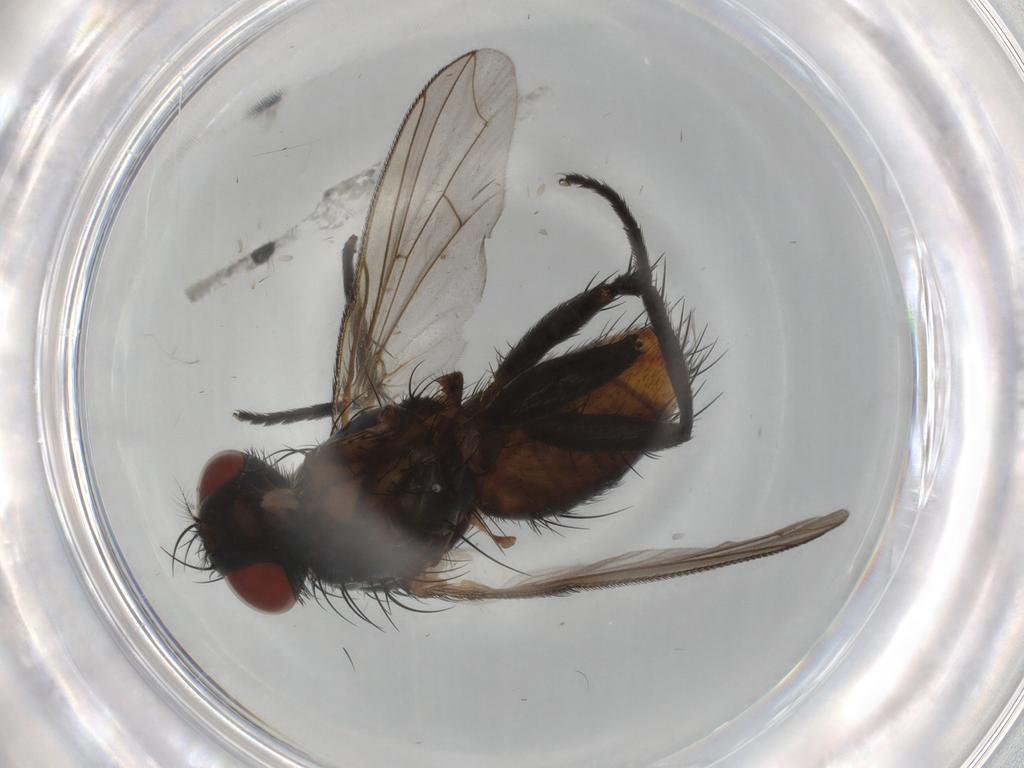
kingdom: Animalia
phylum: Arthropoda
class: Insecta
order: Diptera
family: Sarcophagidae
